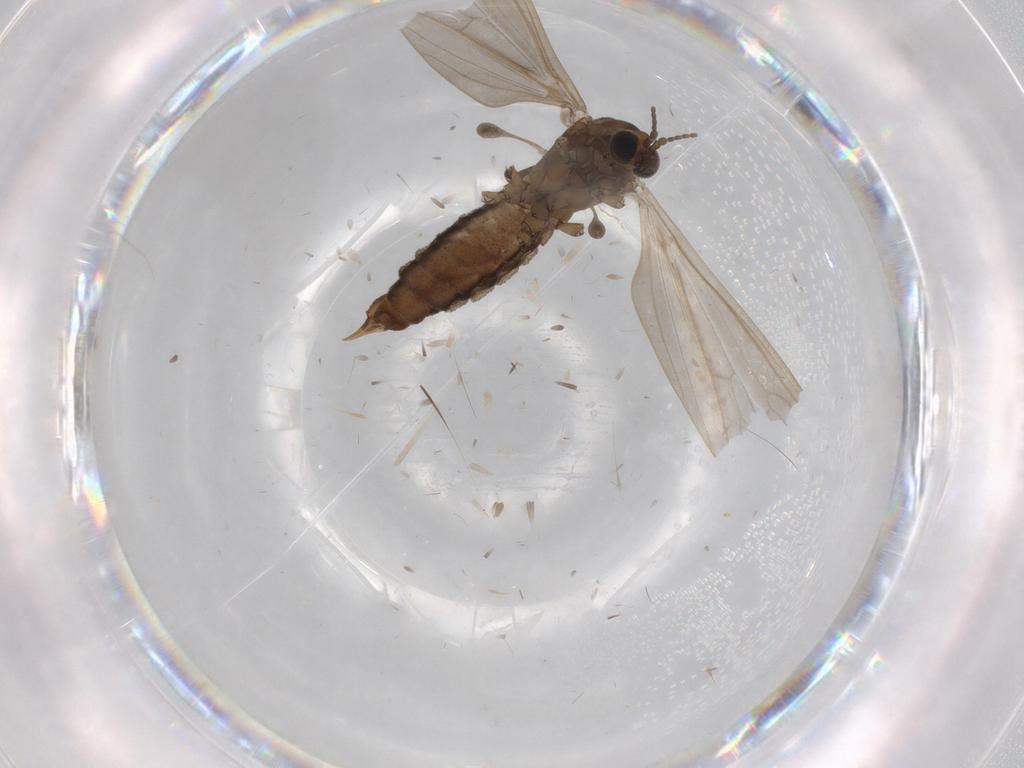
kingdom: Animalia
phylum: Arthropoda
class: Insecta
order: Diptera
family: Limoniidae
